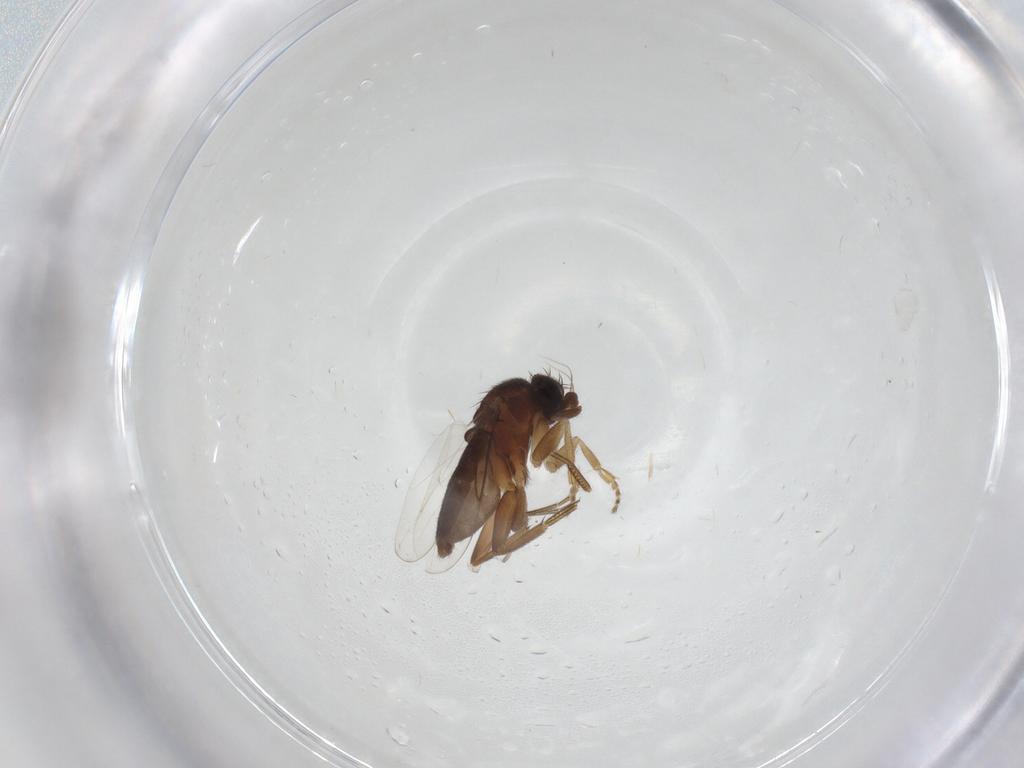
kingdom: Animalia
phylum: Arthropoda
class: Insecta
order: Diptera
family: Phoridae
